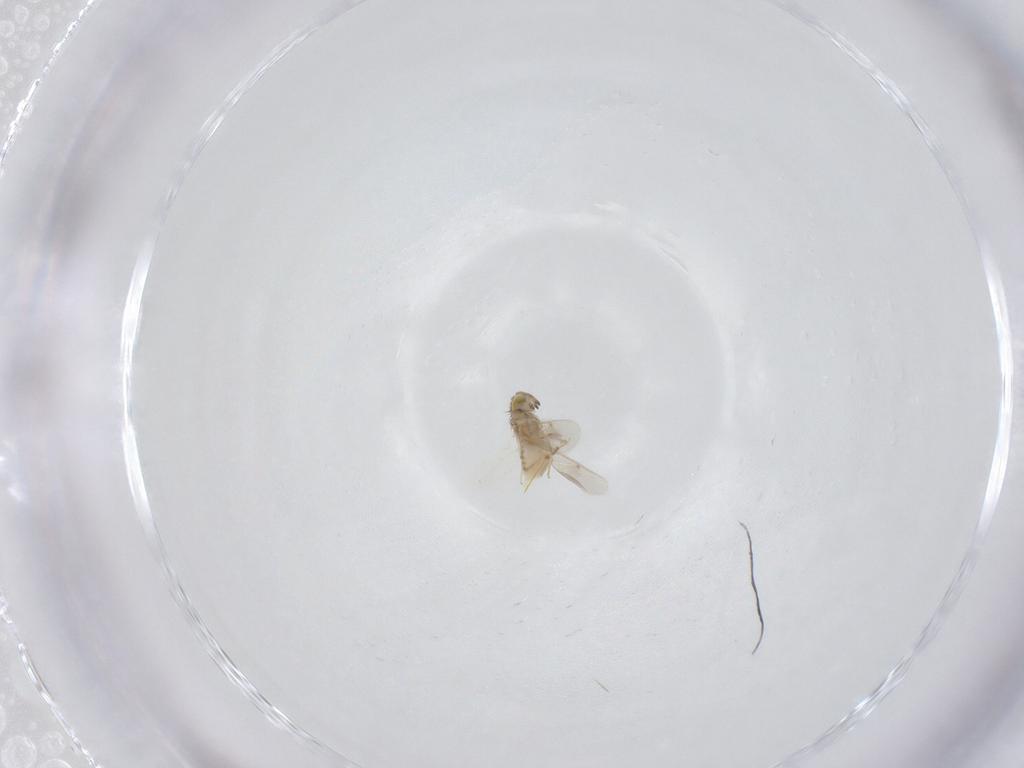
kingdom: Animalia
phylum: Arthropoda
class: Insecta
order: Hymenoptera
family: Aphelinidae
